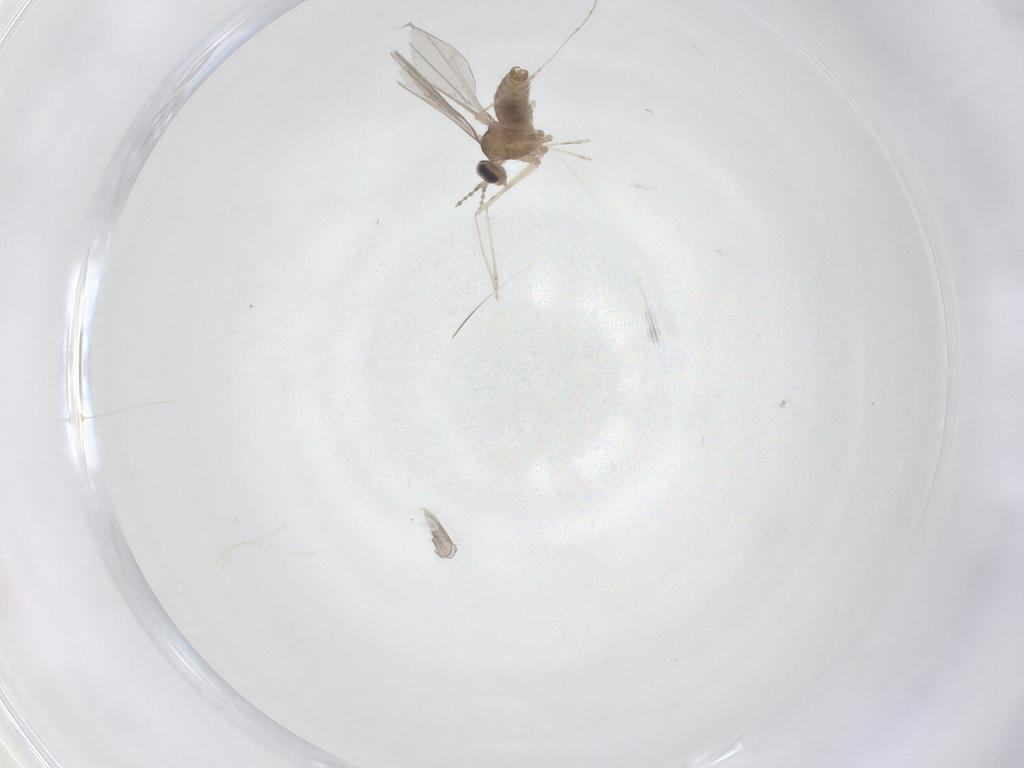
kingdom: Animalia
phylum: Arthropoda
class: Insecta
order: Diptera
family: Cecidomyiidae
